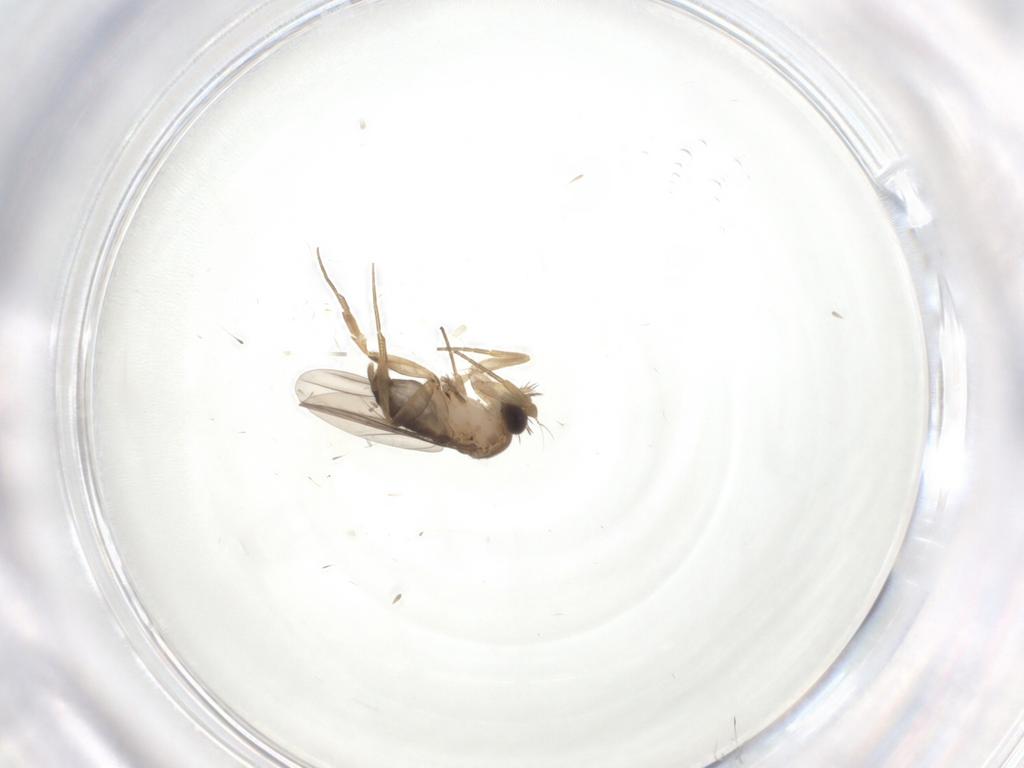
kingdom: Animalia
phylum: Arthropoda
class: Insecta
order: Diptera
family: Phoridae
